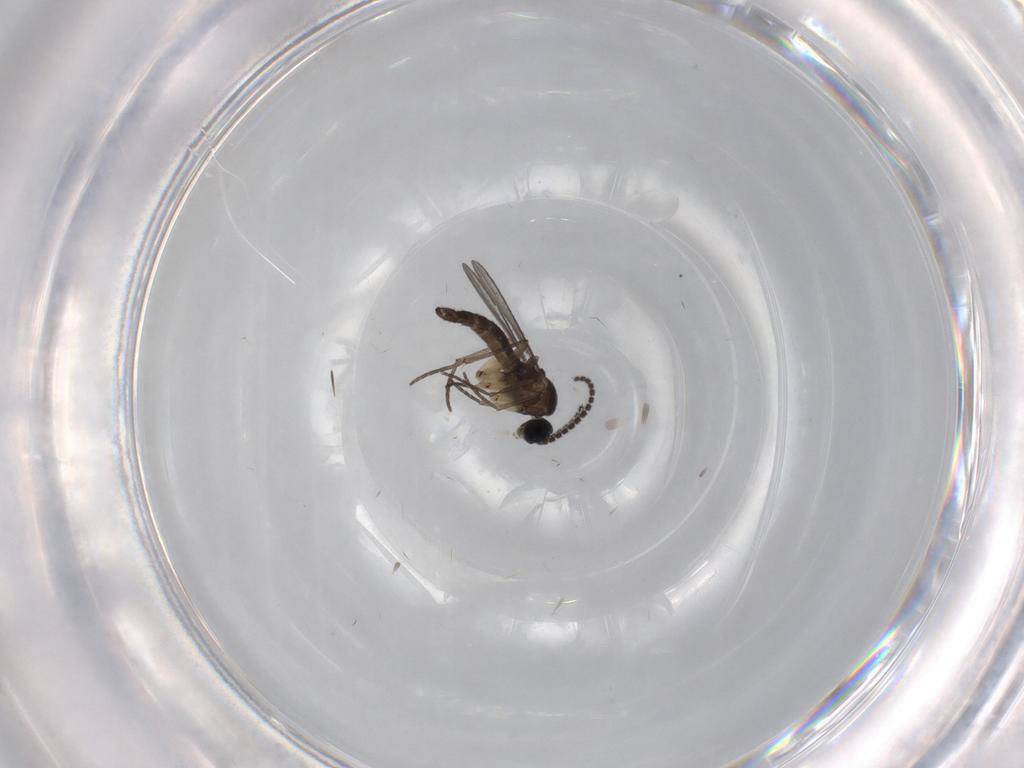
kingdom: Animalia
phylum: Arthropoda
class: Insecta
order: Diptera
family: Sciaridae
